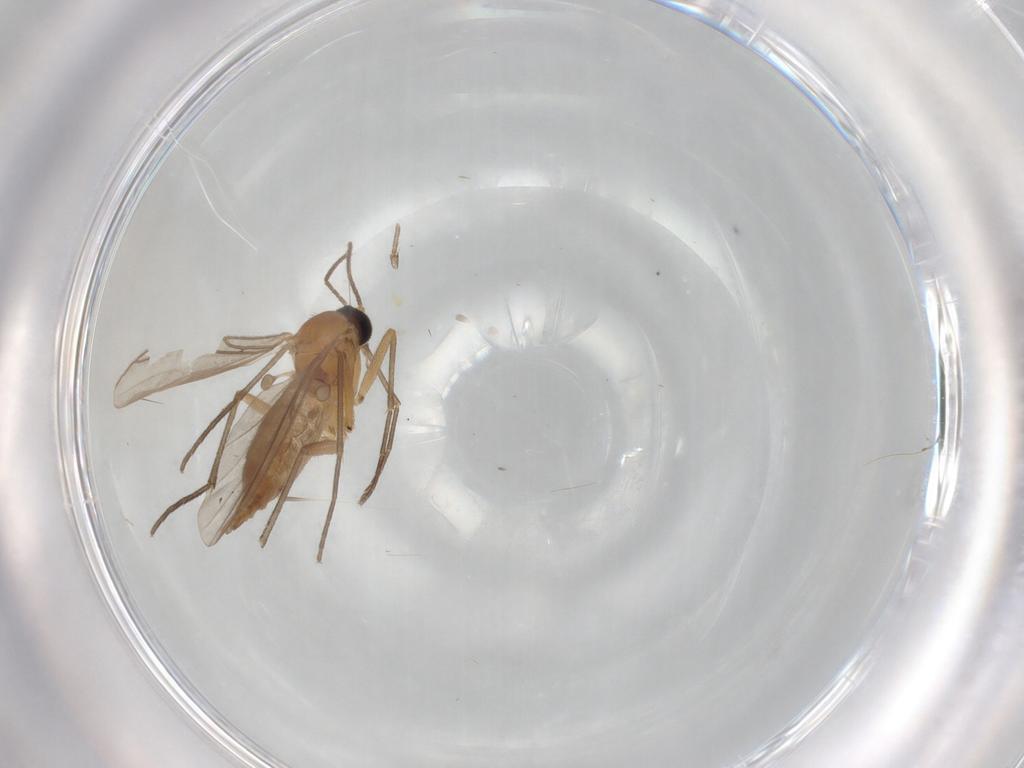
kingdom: Animalia
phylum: Arthropoda
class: Insecta
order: Diptera
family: Sciaridae
